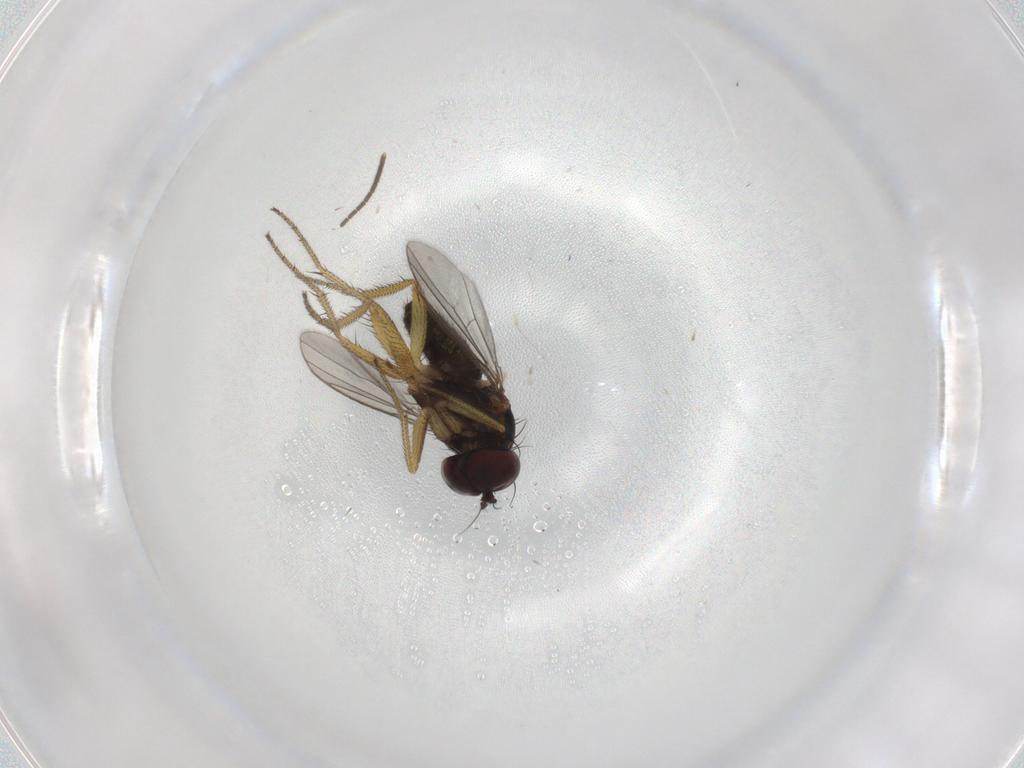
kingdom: Animalia
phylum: Arthropoda
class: Insecta
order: Diptera
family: Sciaridae
